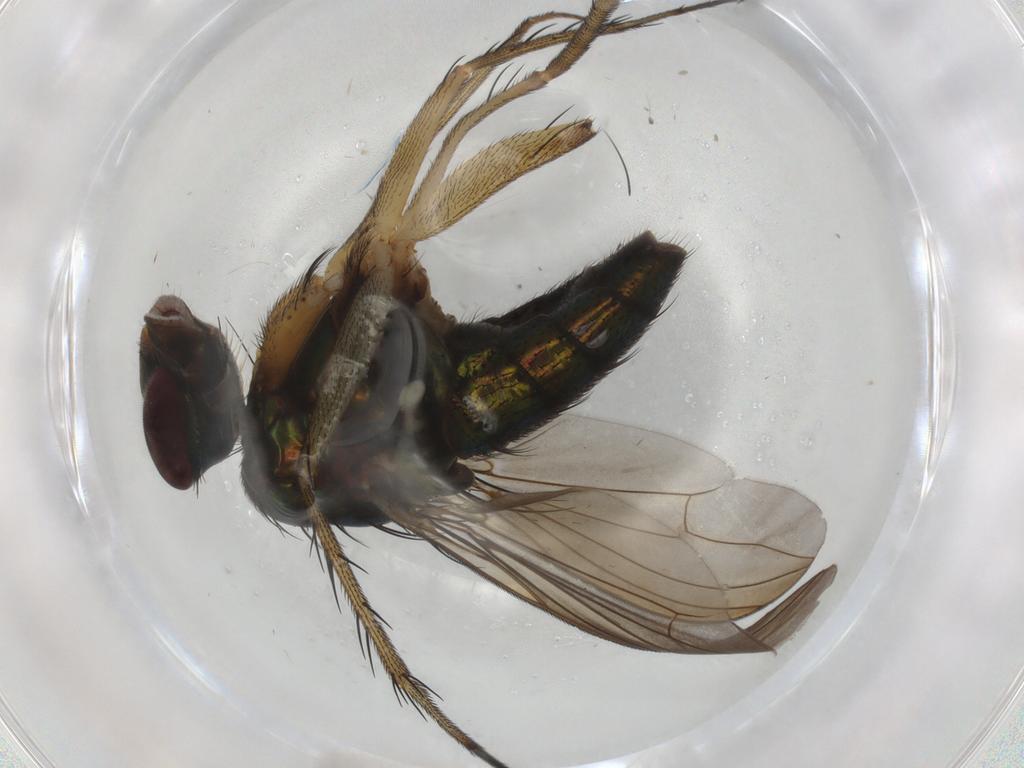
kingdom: Animalia
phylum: Arthropoda
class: Insecta
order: Diptera
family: Dolichopodidae
